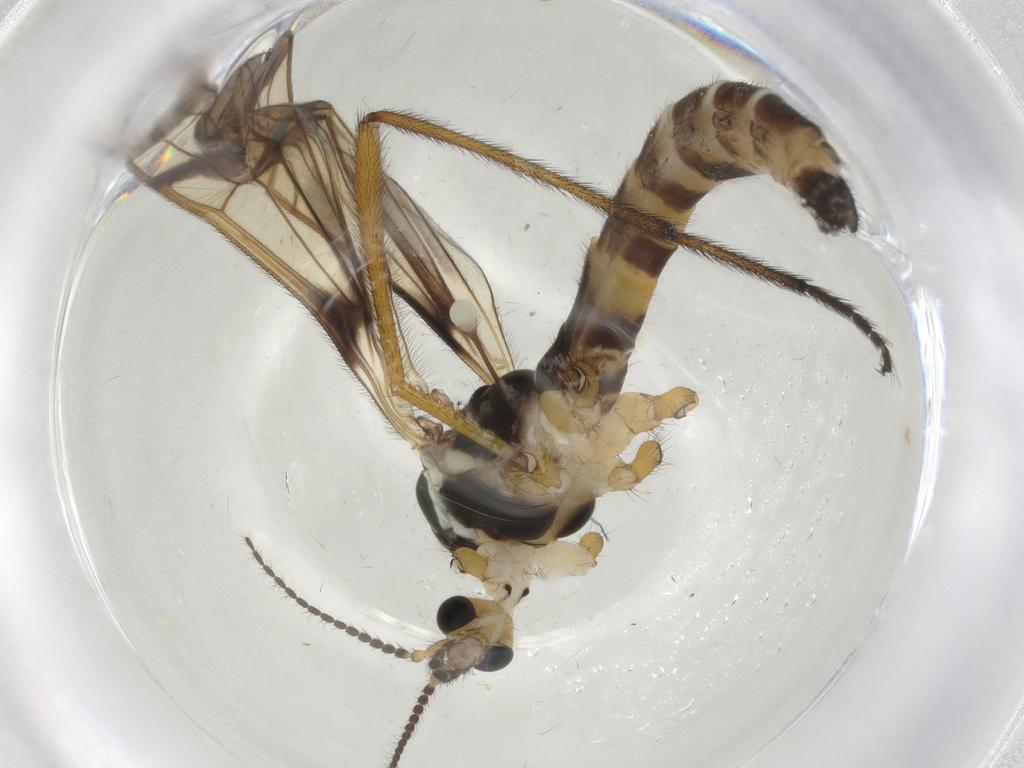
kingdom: Animalia
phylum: Arthropoda
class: Insecta
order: Diptera
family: Limoniidae
